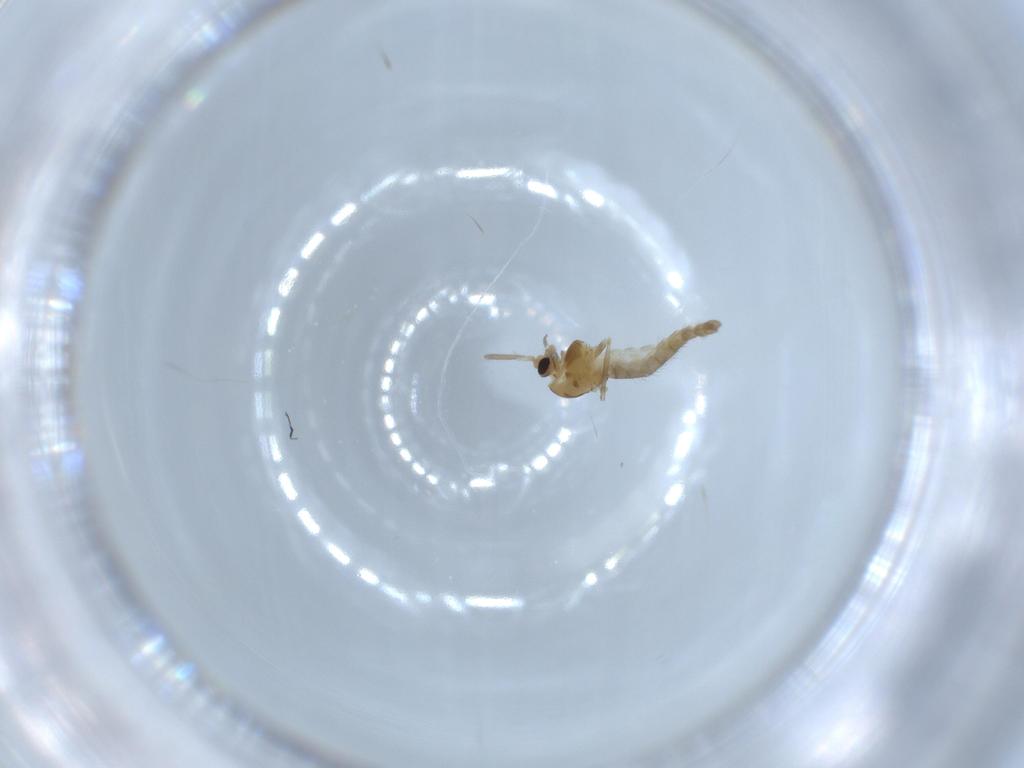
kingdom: Animalia
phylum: Arthropoda
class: Insecta
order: Diptera
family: Chironomidae
